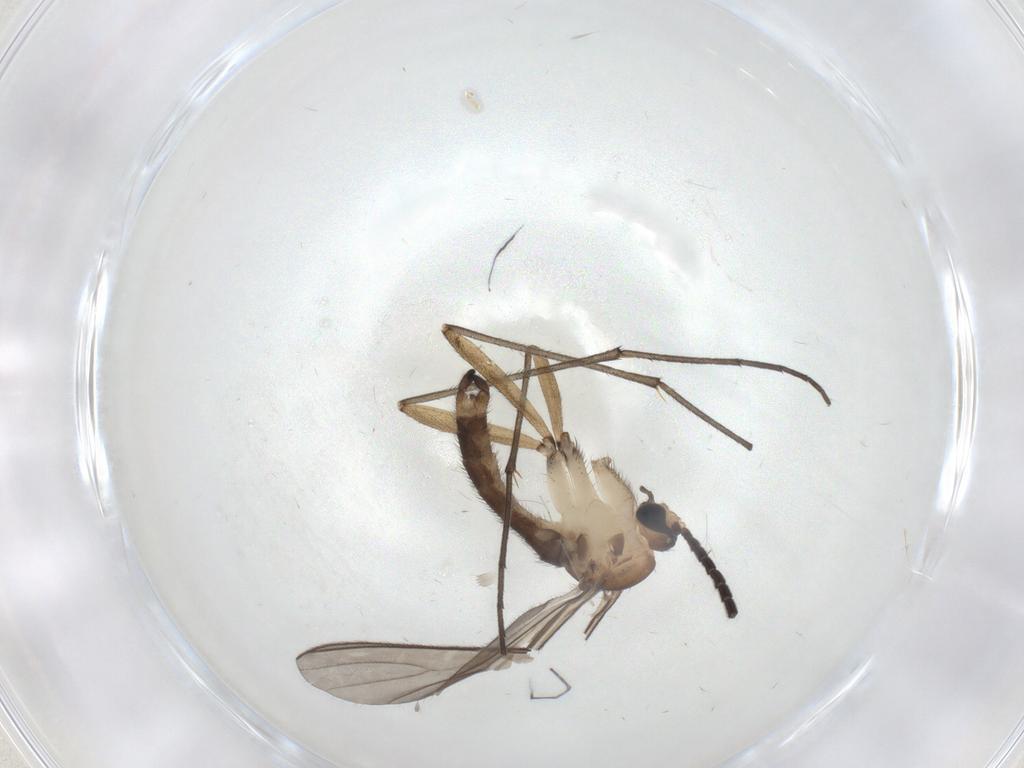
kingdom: Animalia
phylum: Arthropoda
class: Insecta
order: Diptera
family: Sciaridae
